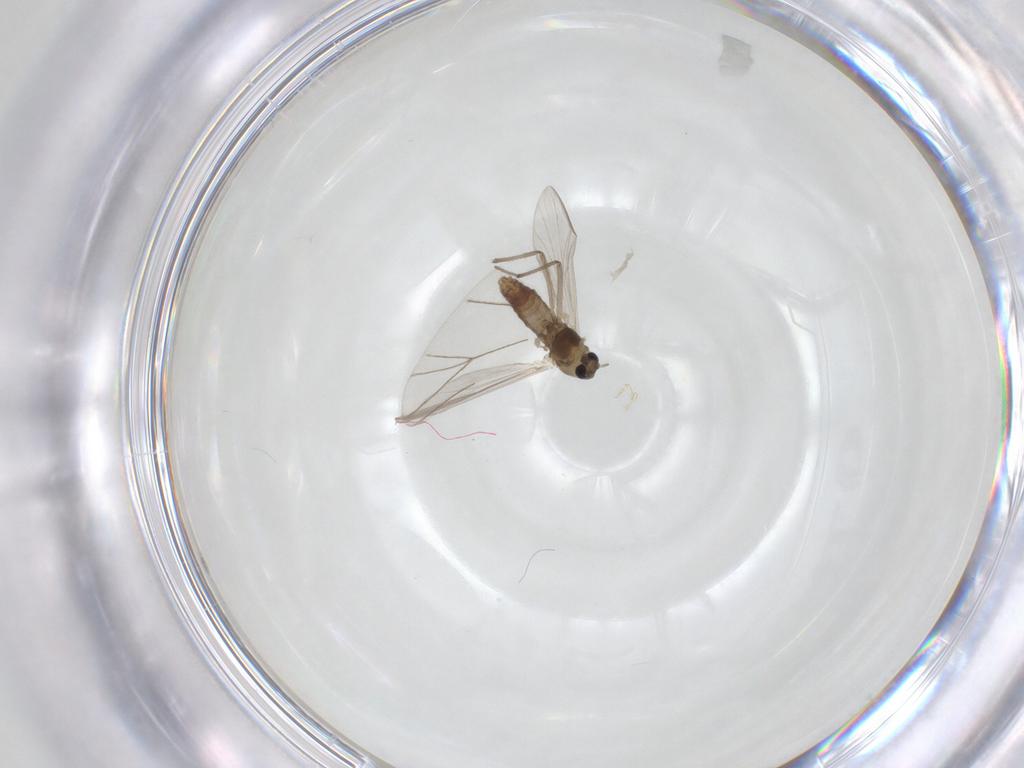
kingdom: Animalia
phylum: Arthropoda
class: Insecta
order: Diptera
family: Chironomidae
